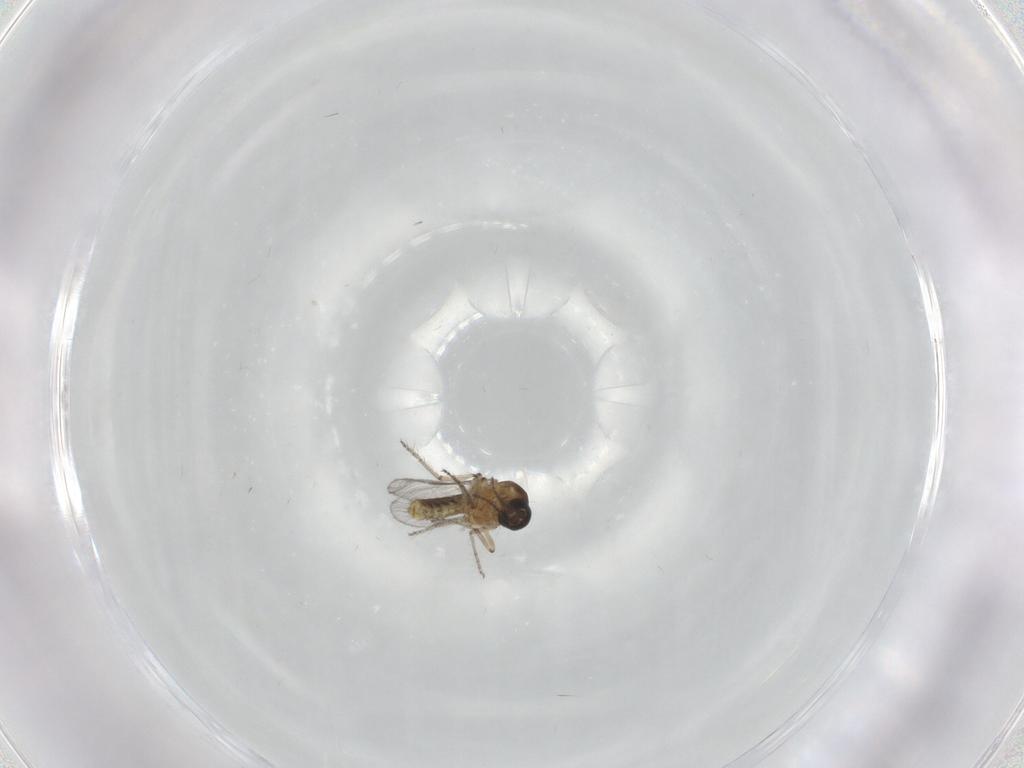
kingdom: Animalia
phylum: Arthropoda
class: Insecta
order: Diptera
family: Ceratopogonidae
